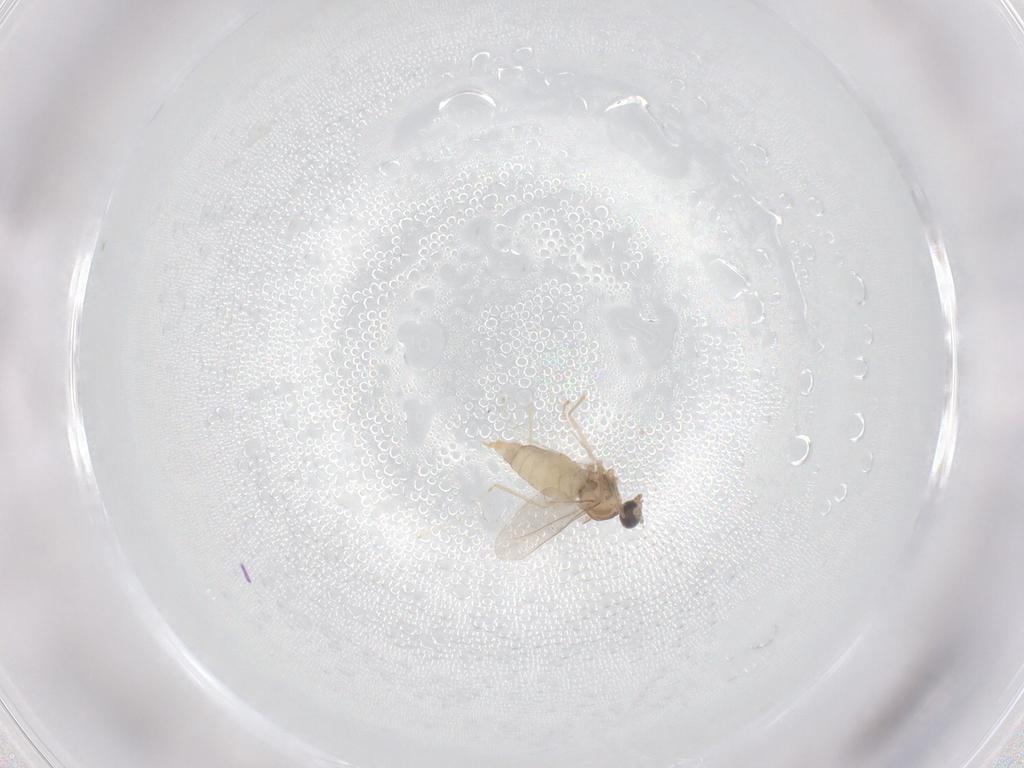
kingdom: Animalia
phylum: Arthropoda
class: Insecta
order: Diptera
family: Cecidomyiidae
